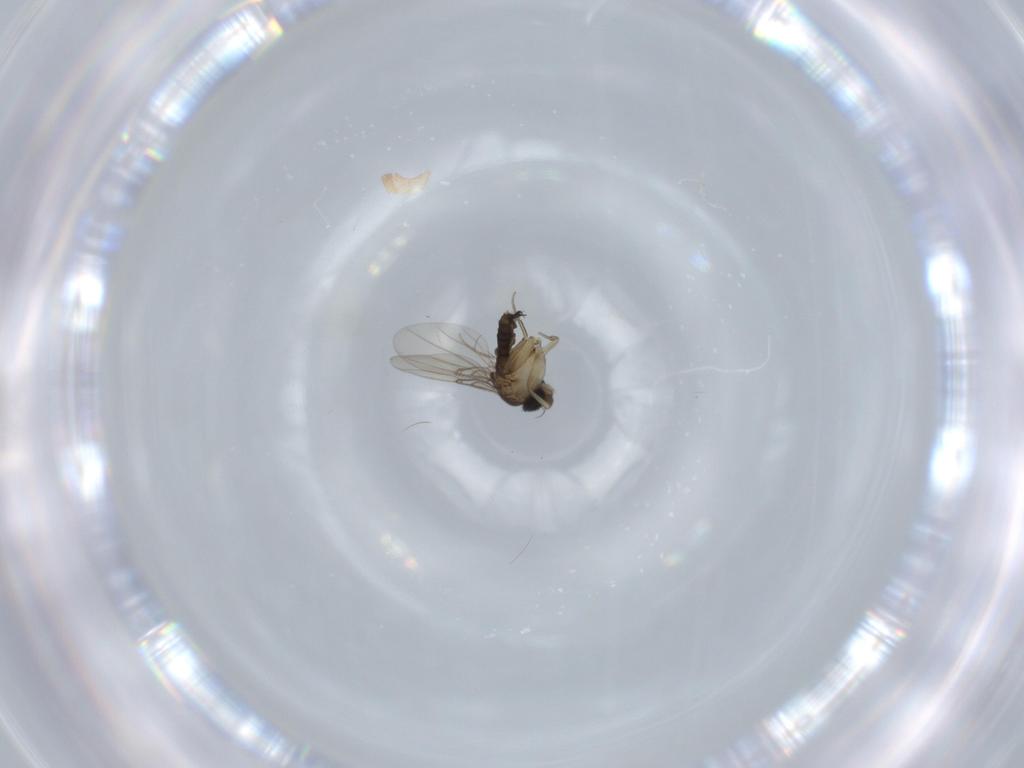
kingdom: Animalia
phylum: Arthropoda
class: Insecta
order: Diptera
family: Phoridae
